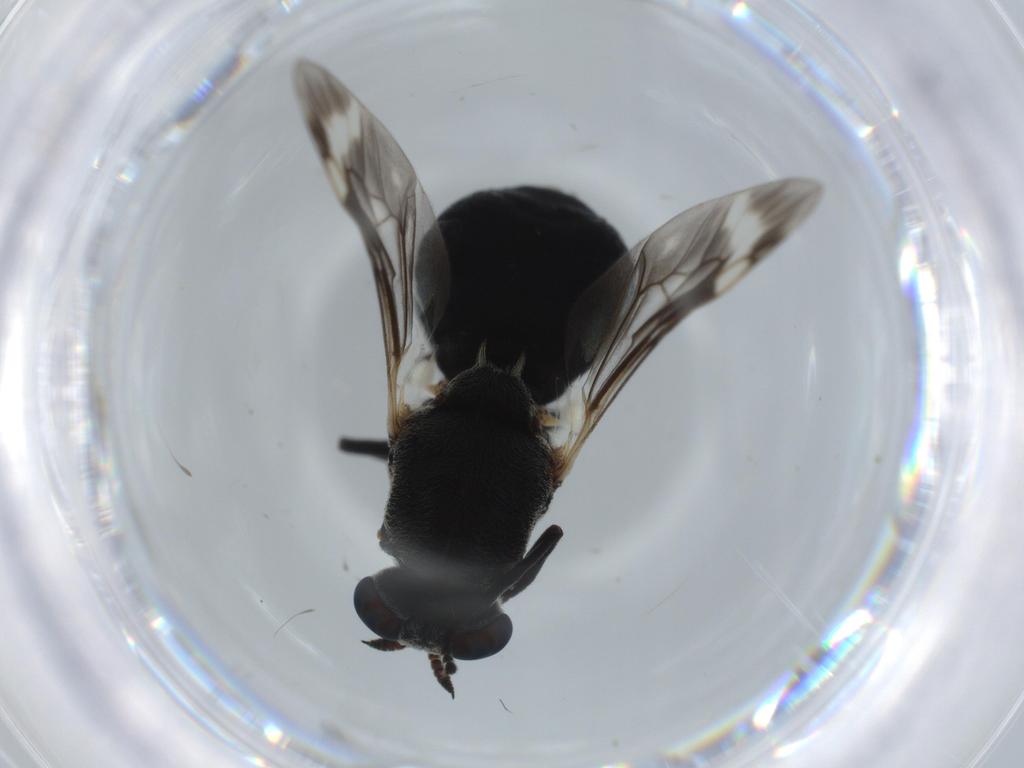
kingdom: Animalia
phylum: Arthropoda
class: Insecta
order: Diptera
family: Stratiomyidae
